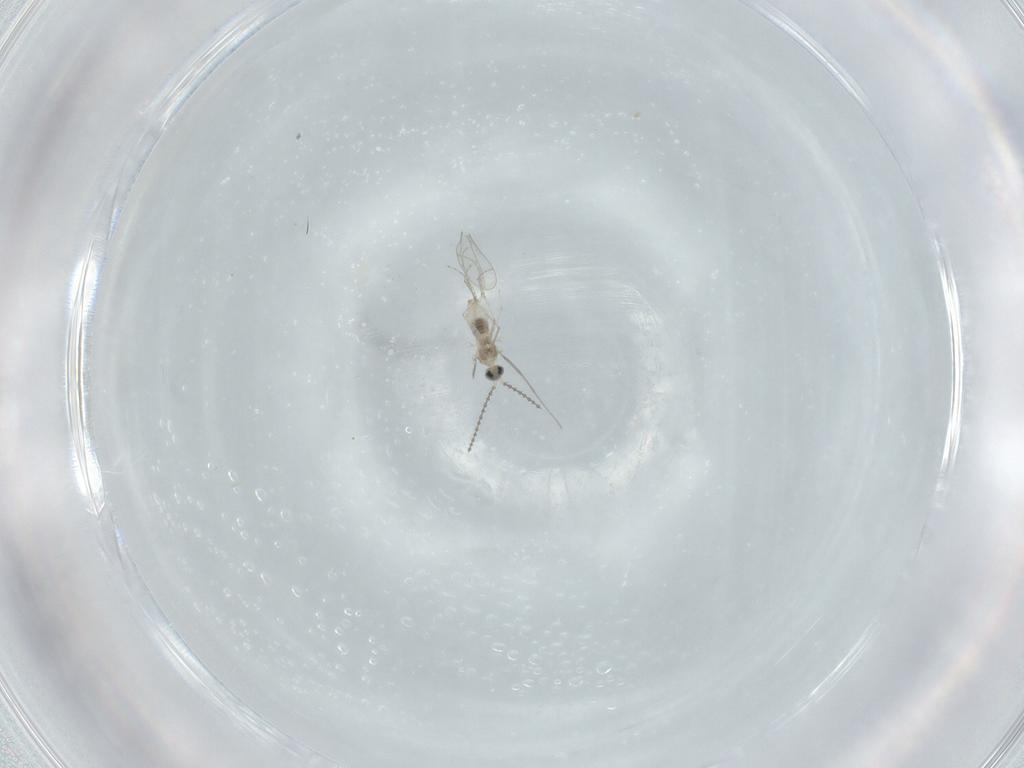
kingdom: Animalia
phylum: Arthropoda
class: Insecta
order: Diptera
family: Cecidomyiidae
